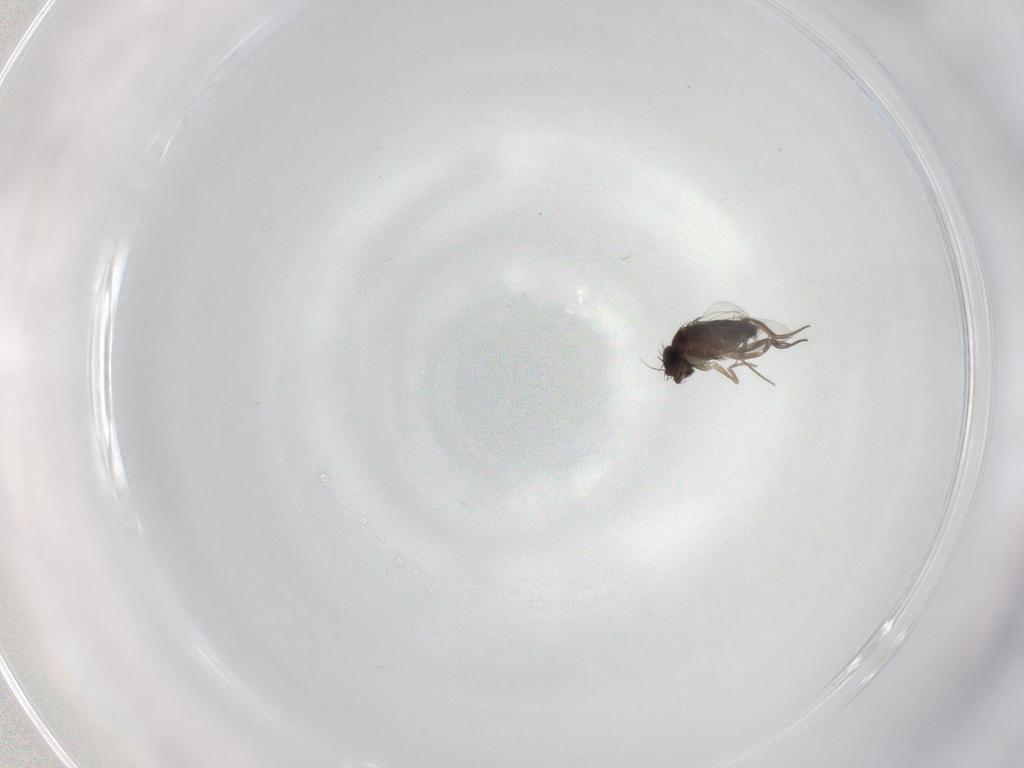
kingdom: Animalia
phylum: Arthropoda
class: Insecta
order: Diptera
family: Phoridae
